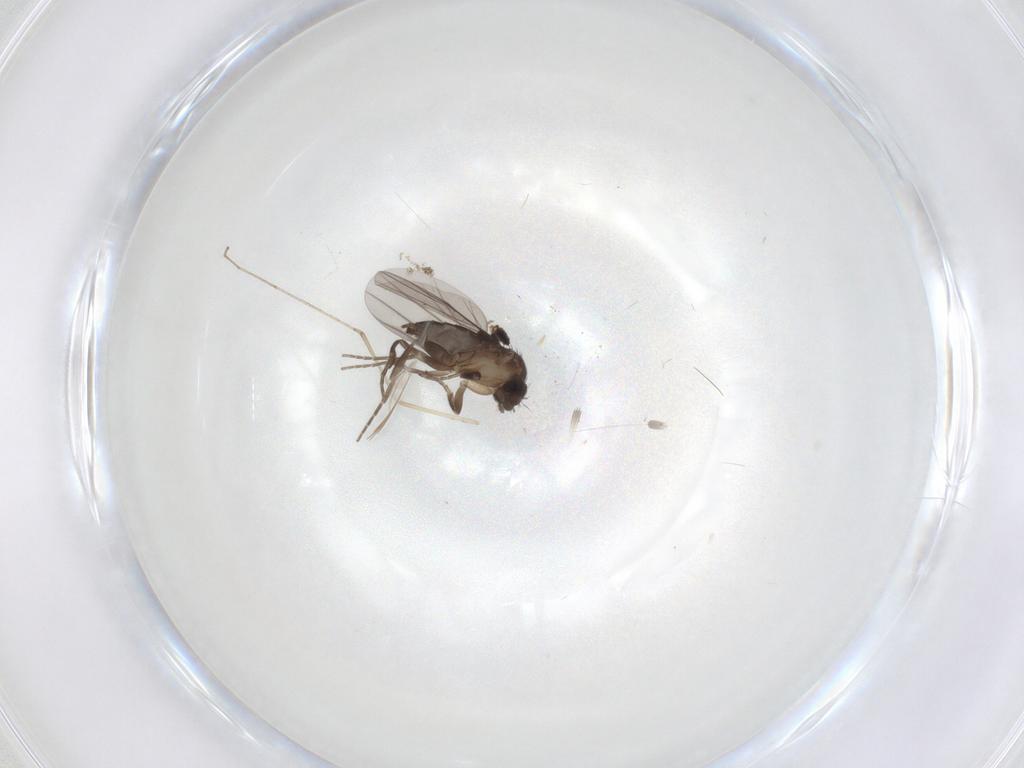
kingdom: Animalia
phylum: Arthropoda
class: Insecta
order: Diptera
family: Cecidomyiidae
